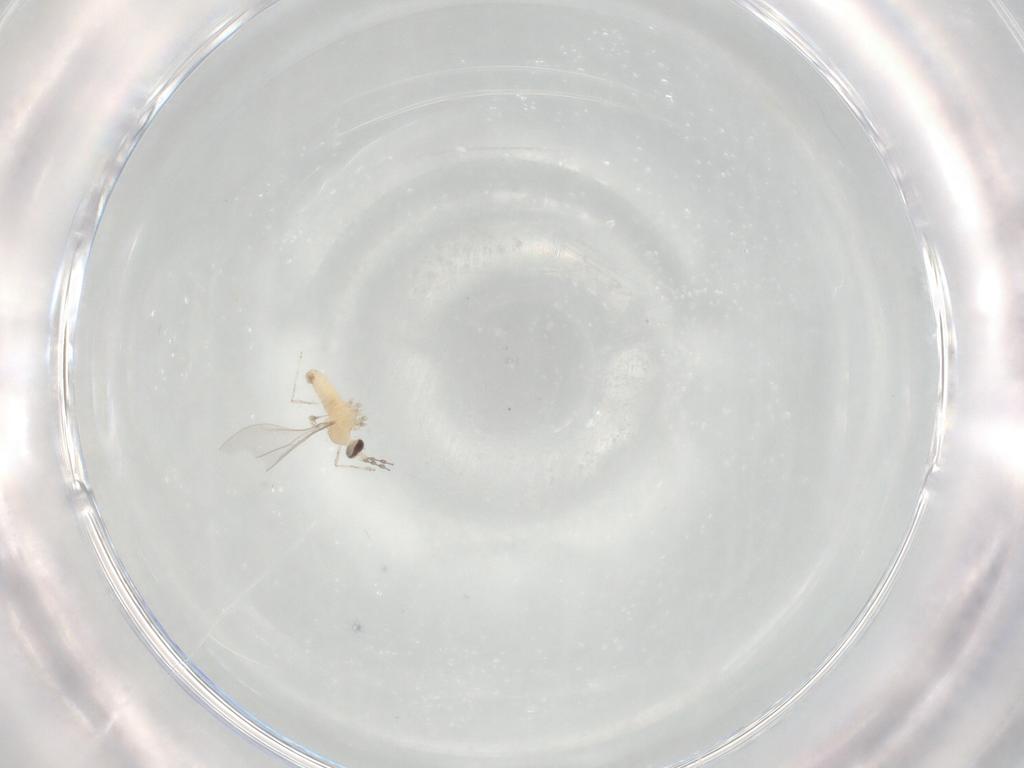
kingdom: Animalia
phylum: Arthropoda
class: Insecta
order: Diptera
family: Cecidomyiidae
